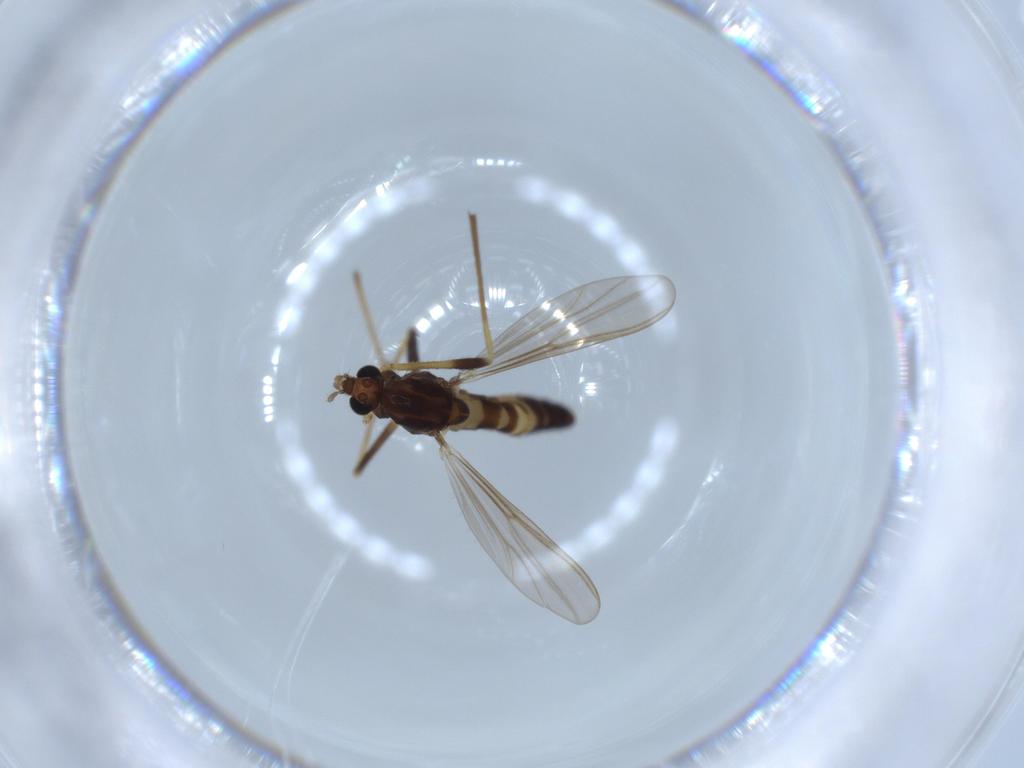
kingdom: Animalia
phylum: Arthropoda
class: Insecta
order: Diptera
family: Chironomidae
